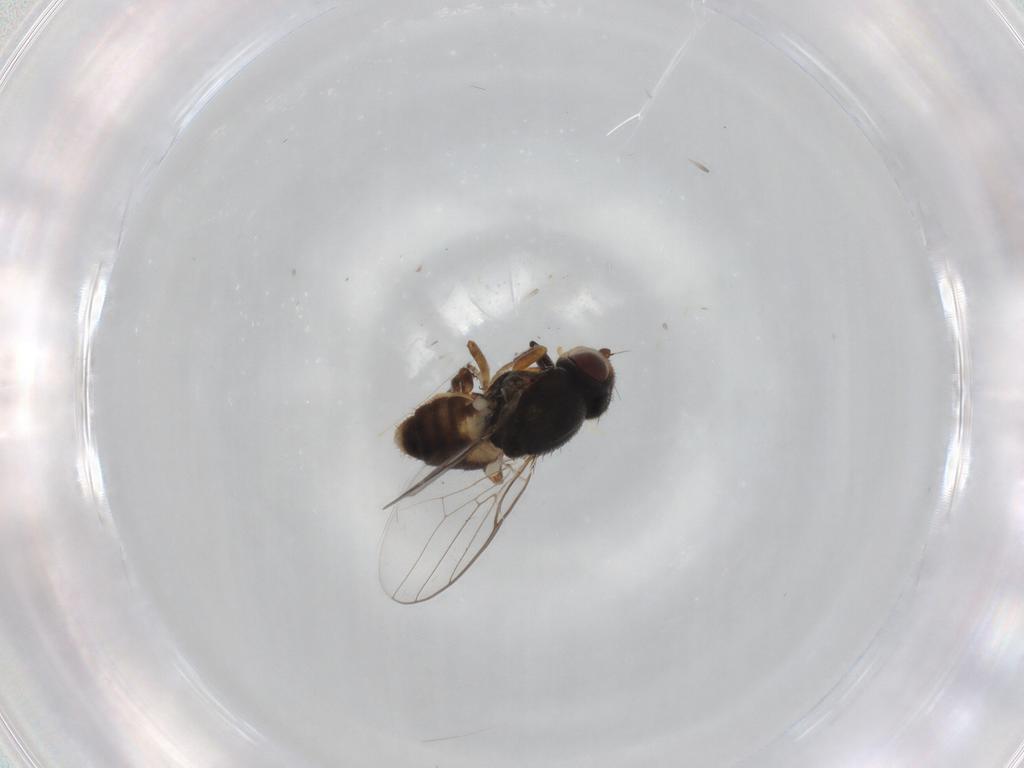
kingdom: Animalia
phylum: Arthropoda
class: Insecta
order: Diptera
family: Chloropidae
